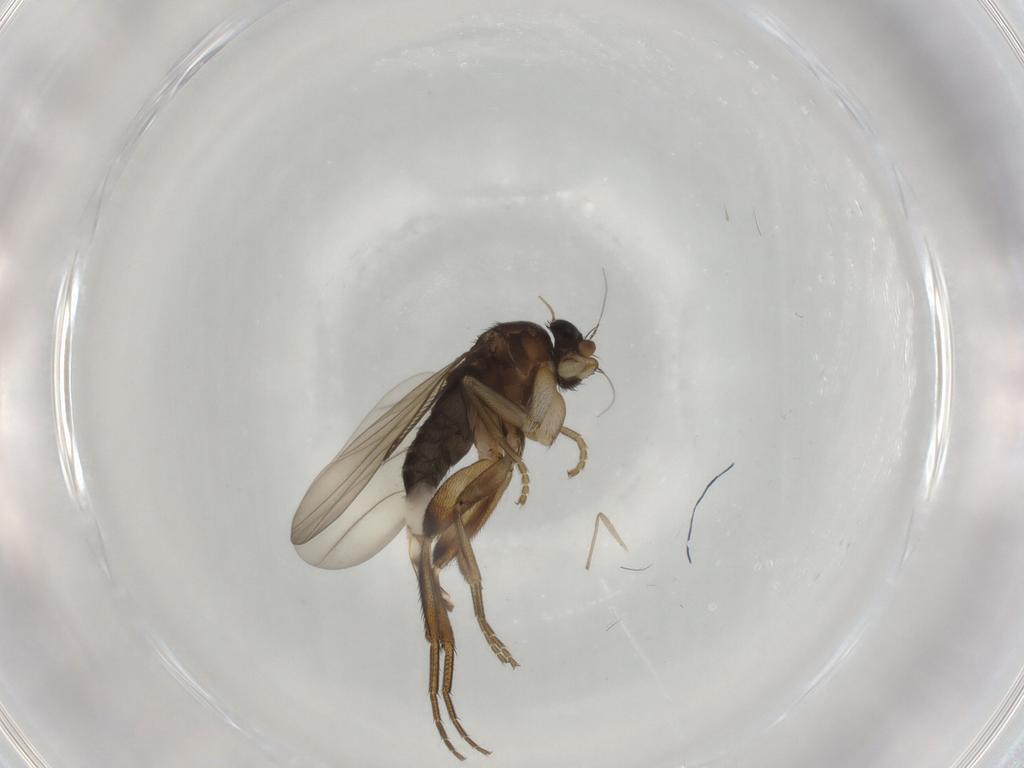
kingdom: Animalia
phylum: Arthropoda
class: Insecta
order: Diptera
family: Phoridae
